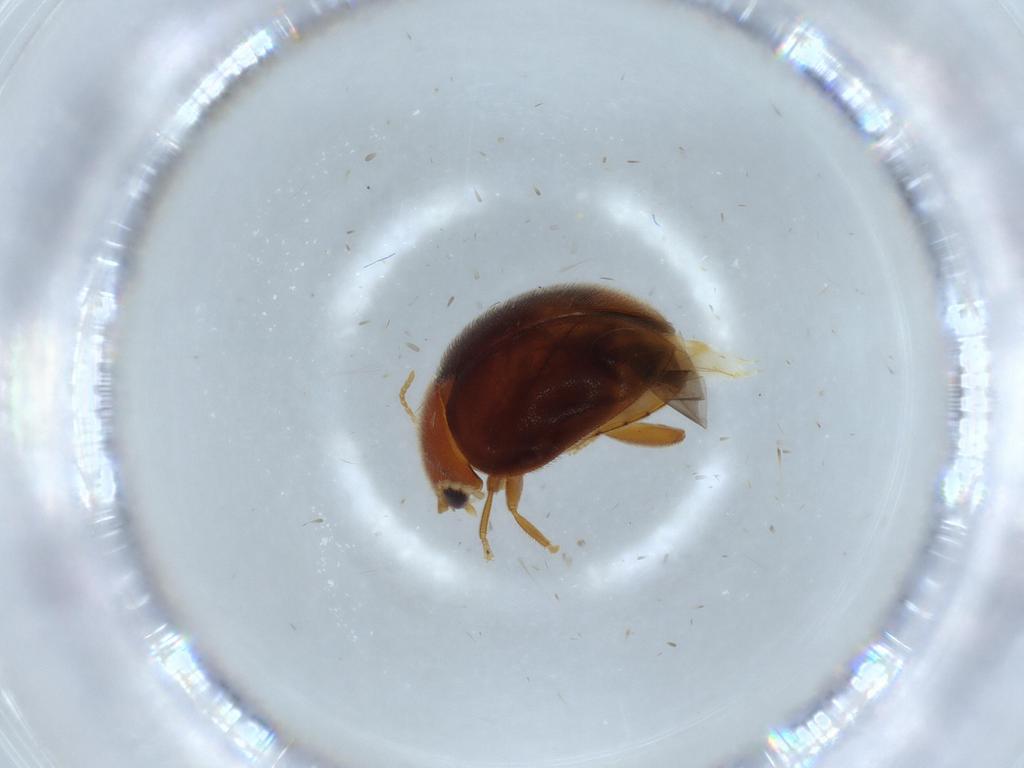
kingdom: Animalia
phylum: Arthropoda
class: Insecta
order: Coleoptera
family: Scirtidae
